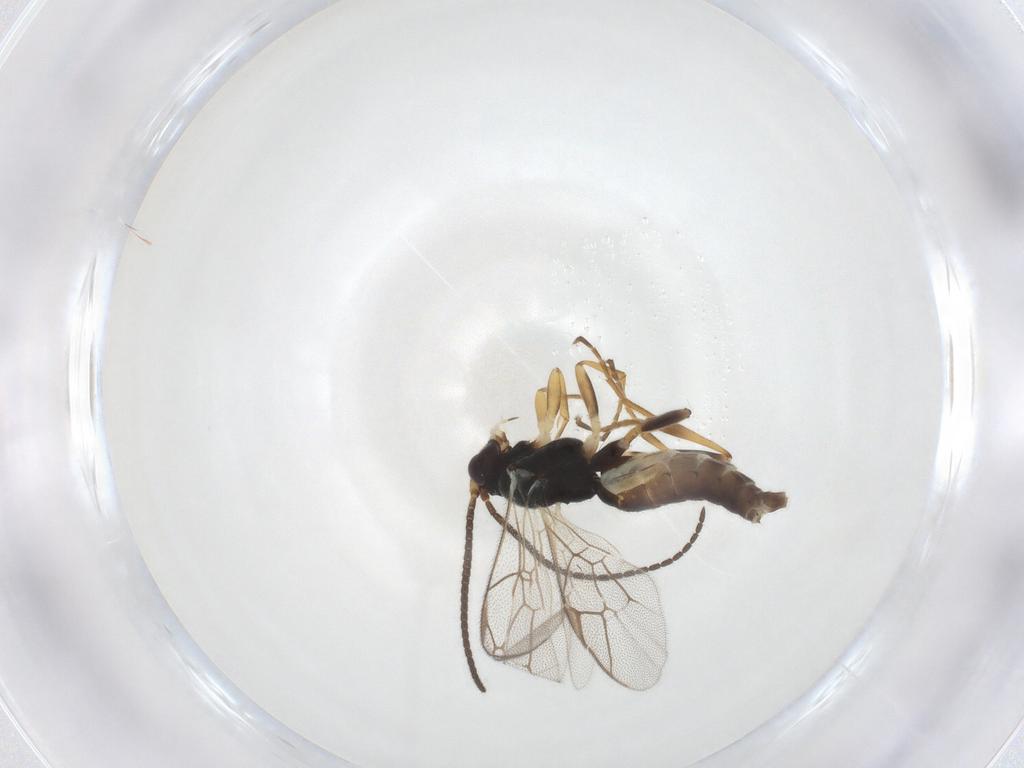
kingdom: Animalia
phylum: Arthropoda
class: Insecta
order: Hymenoptera
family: Ichneumonidae
